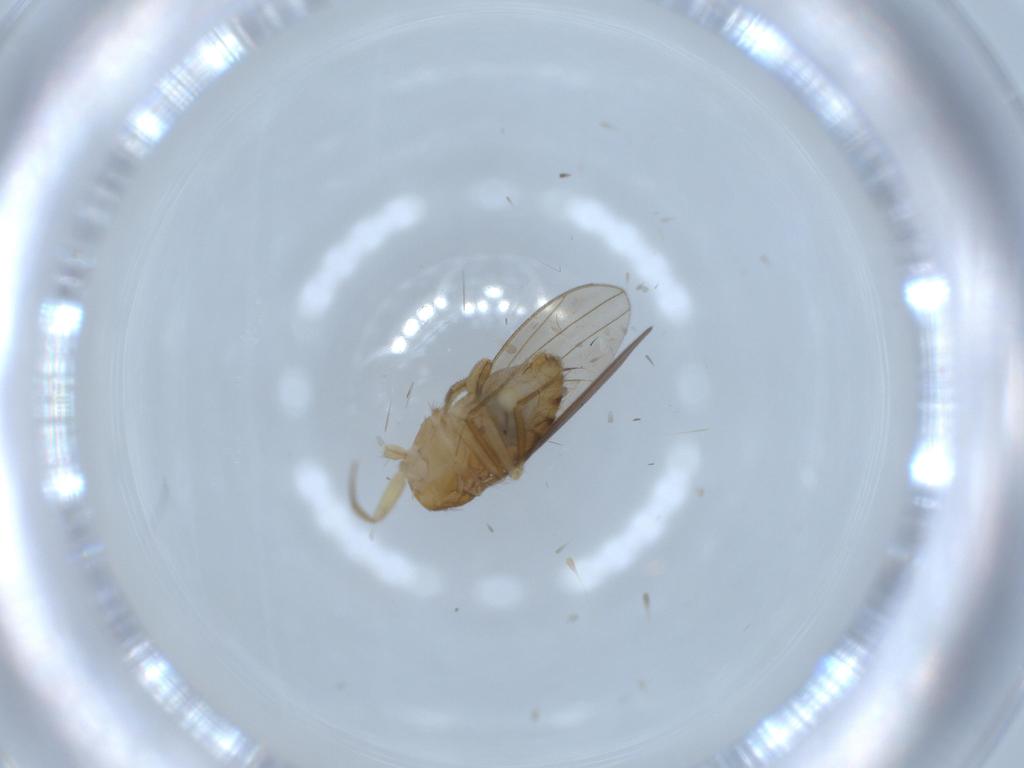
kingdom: Animalia
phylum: Arthropoda
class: Insecta
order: Diptera
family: Drosophilidae
